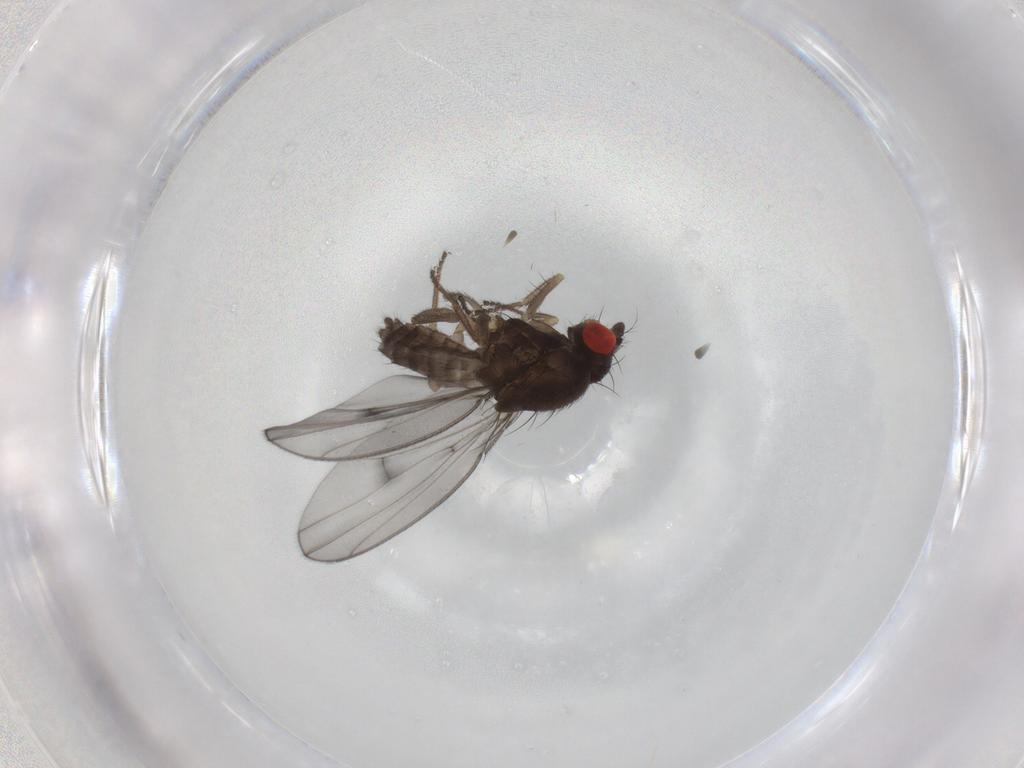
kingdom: Animalia
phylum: Arthropoda
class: Insecta
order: Diptera
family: Drosophilidae
